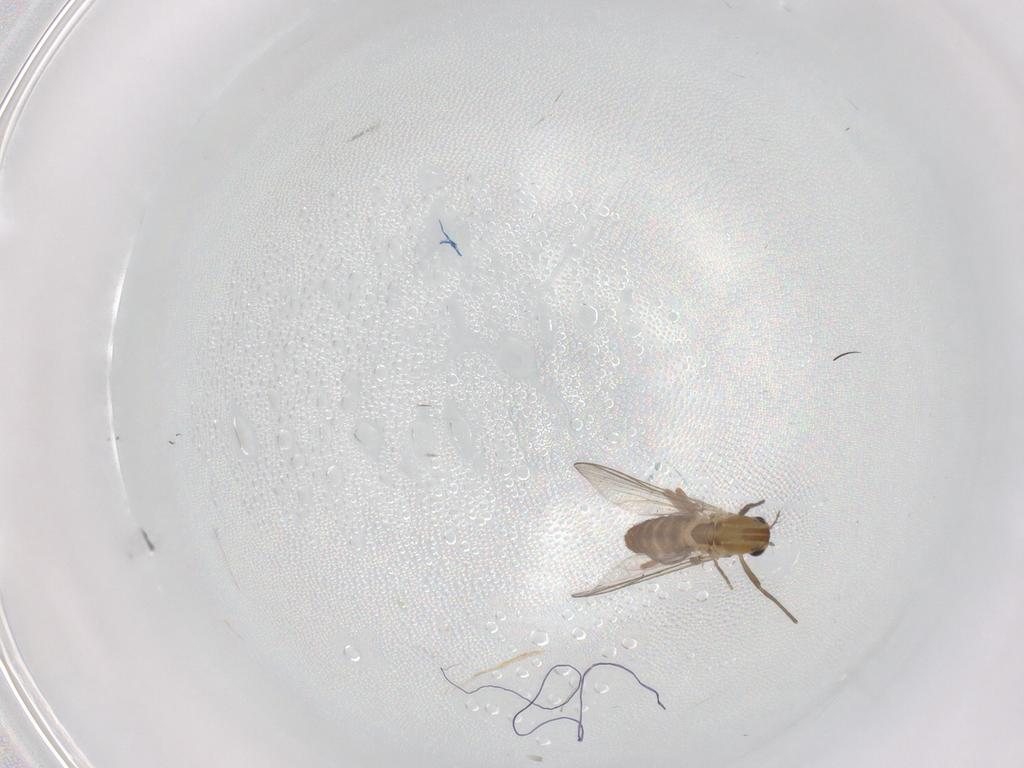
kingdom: Animalia
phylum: Arthropoda
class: Insecta
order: Diptera
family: Chironomidae
